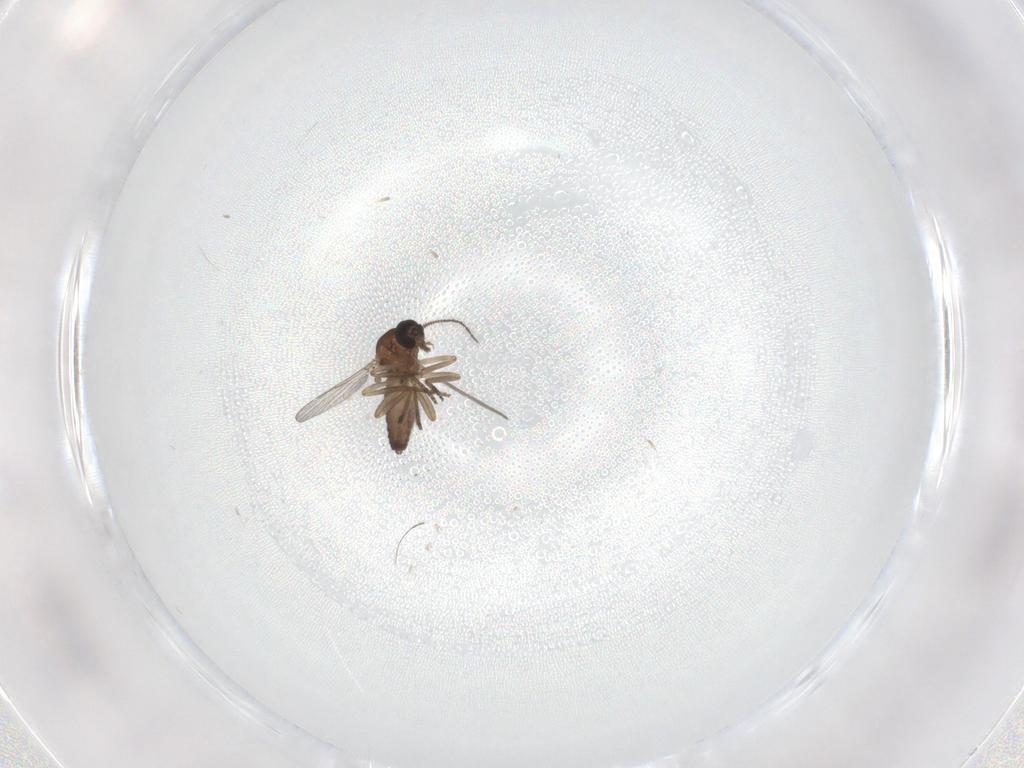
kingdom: Animalia
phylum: Arthropoda
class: Insecta
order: Diptera
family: Ceratopogonidae
